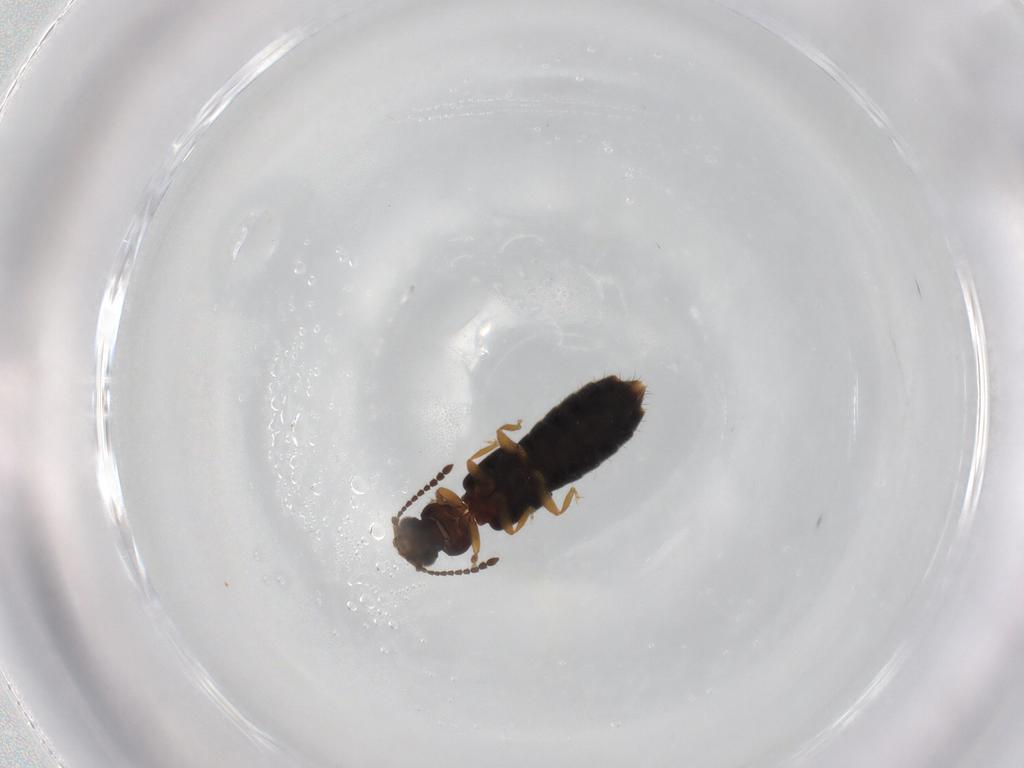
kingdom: Animalia
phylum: Arthropoda
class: Insecta
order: Coleoptera
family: Staphylinidae
